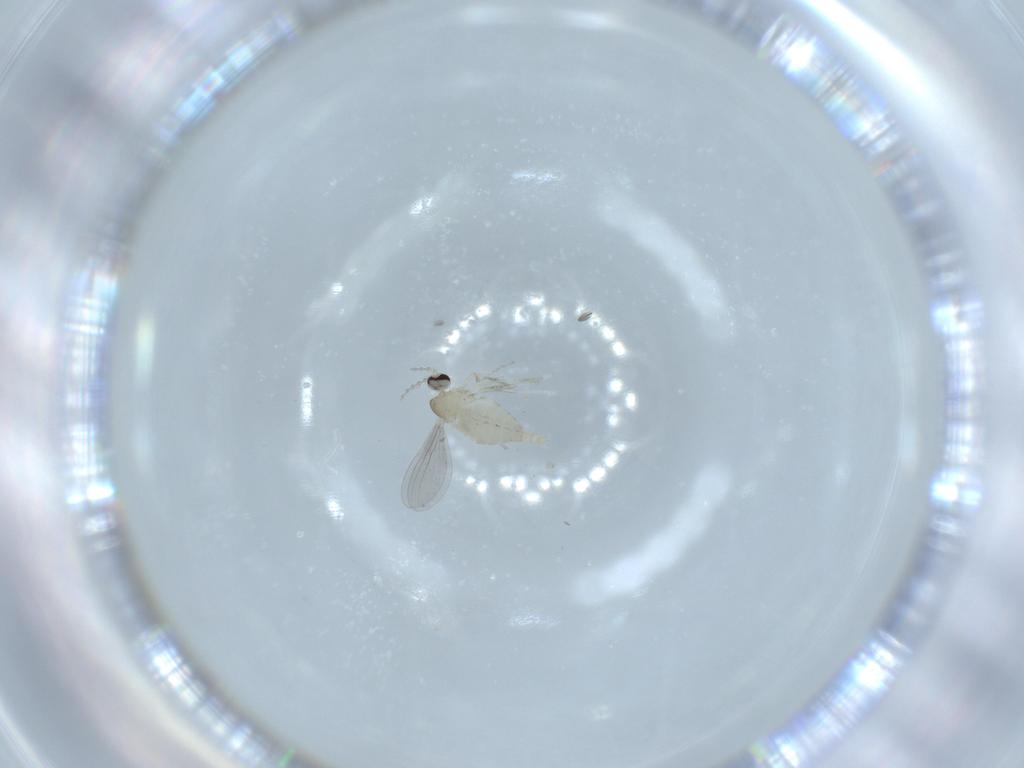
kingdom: Animalia
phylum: Arthropoda
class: Insecta
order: Diptera
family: Cecidomyiidae
